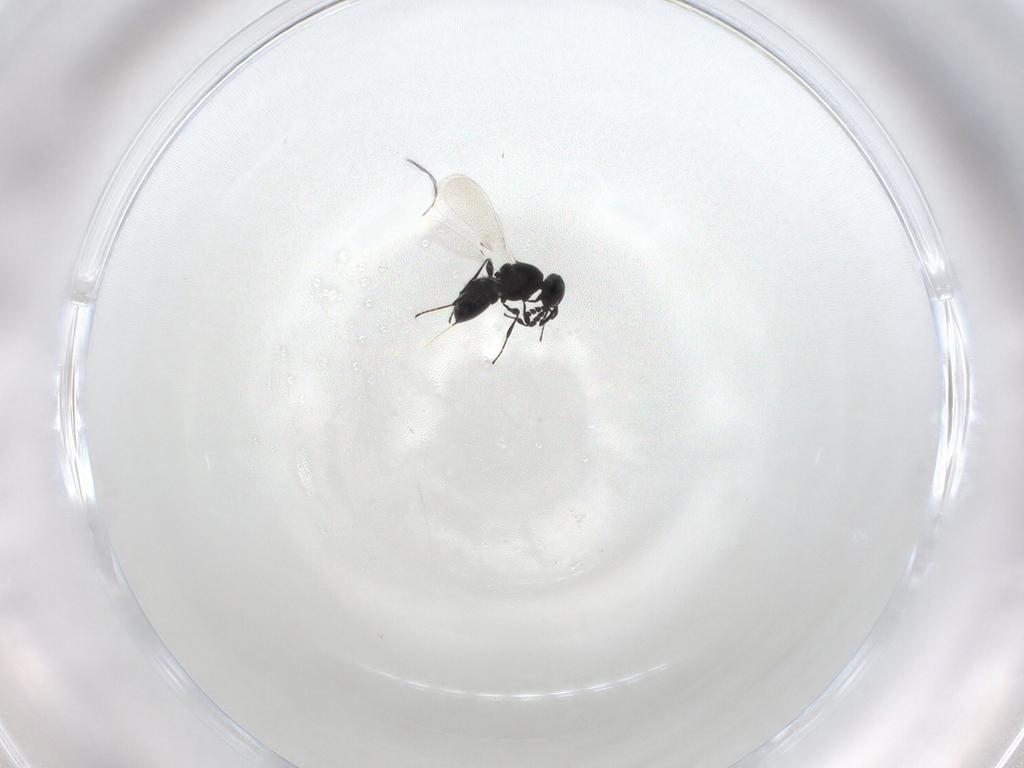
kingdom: Animalia
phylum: Arthropoda
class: Insecta
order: Hymenoptera
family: Platygastridae
